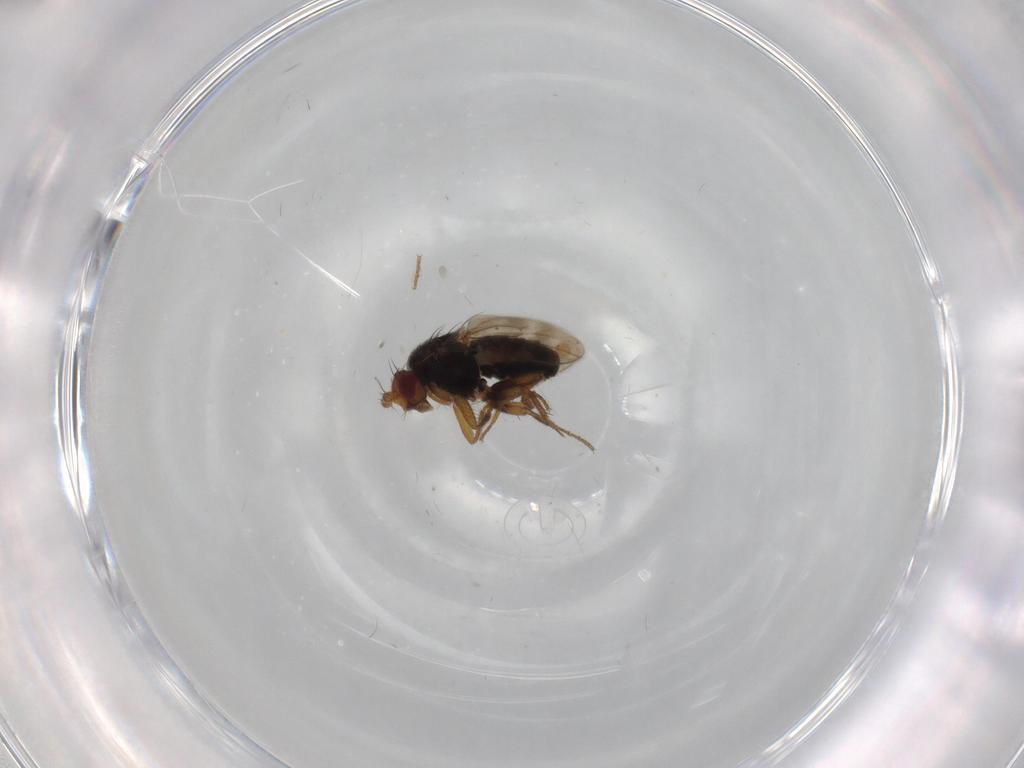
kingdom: Animalia
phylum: Arthropoda
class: Insecta
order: Diptera
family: Sphaeroceridae
